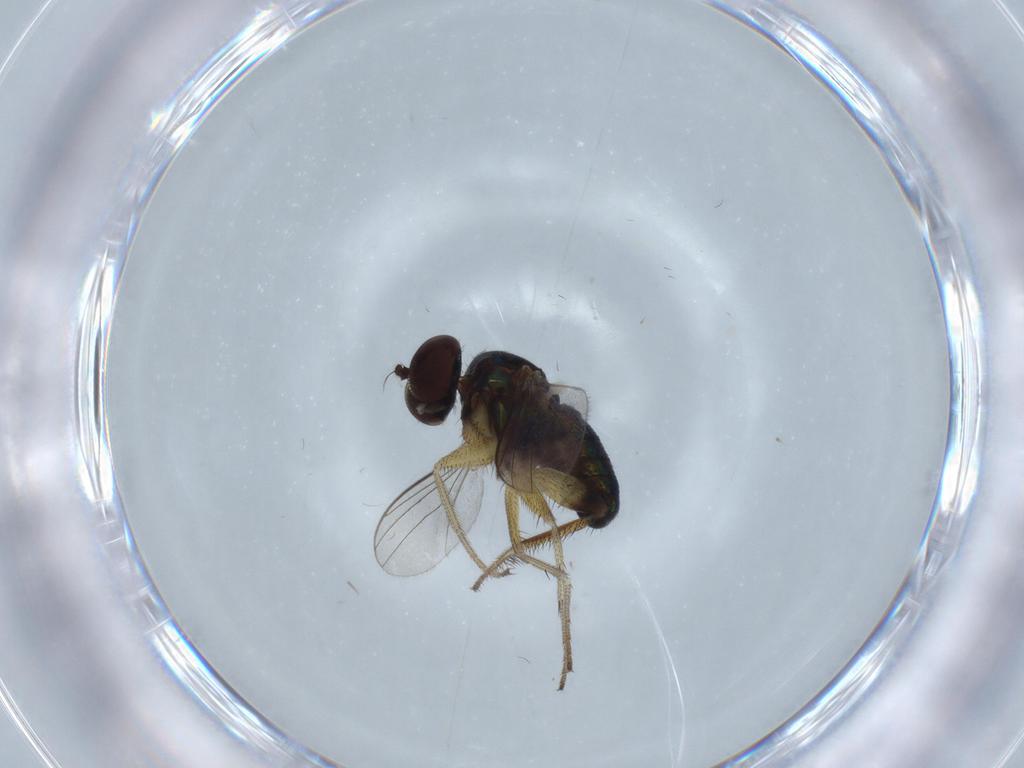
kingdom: Animalia
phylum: Arthropoda
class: Insecta
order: Diptera
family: Dolichopodidae
